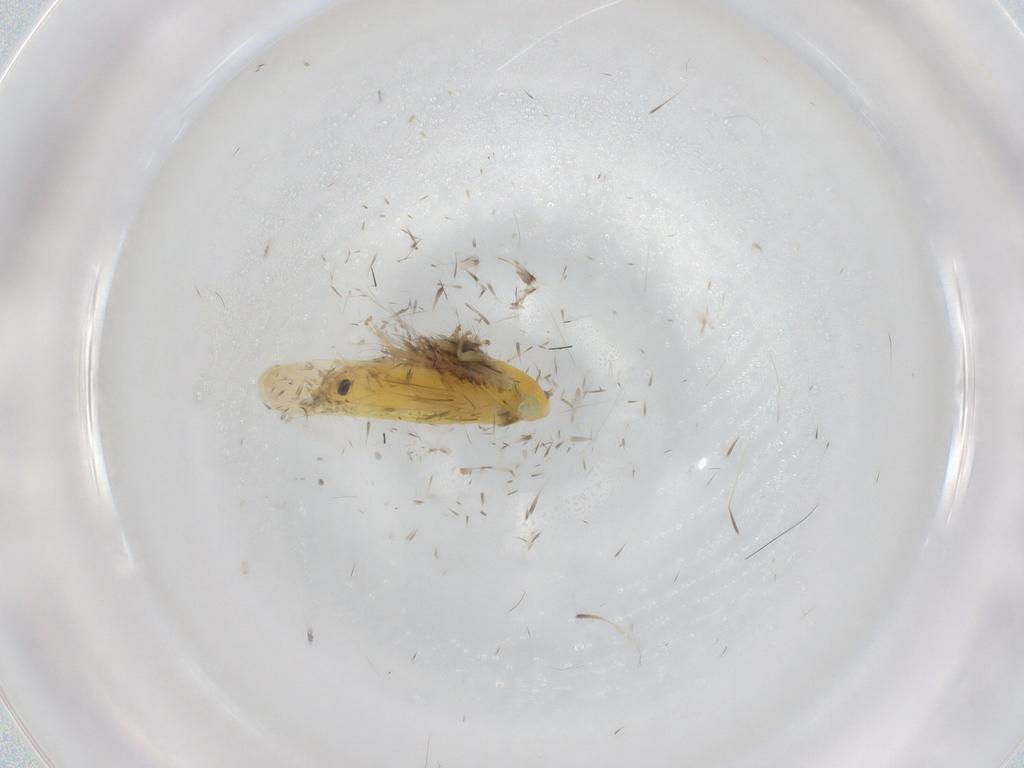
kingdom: Animalia
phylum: Arthropoda
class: Insecta
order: Hemiptera
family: Cicadellidae
